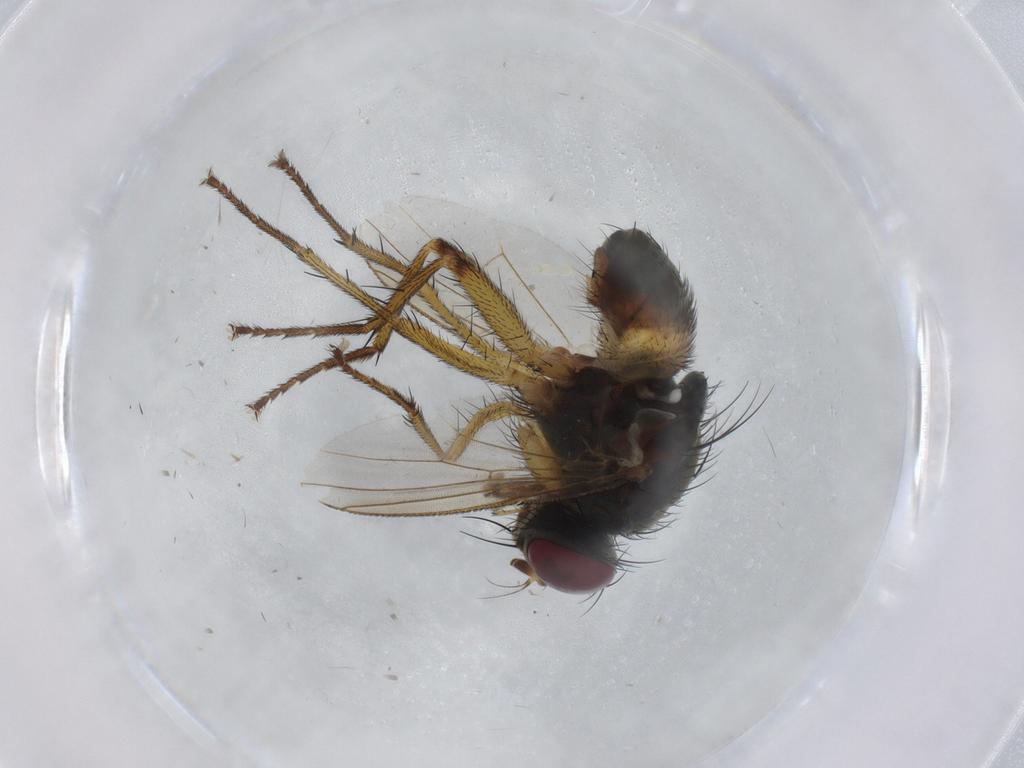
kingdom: Animalia
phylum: Arthropoda
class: Insecta
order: Diptera
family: Muscidae
